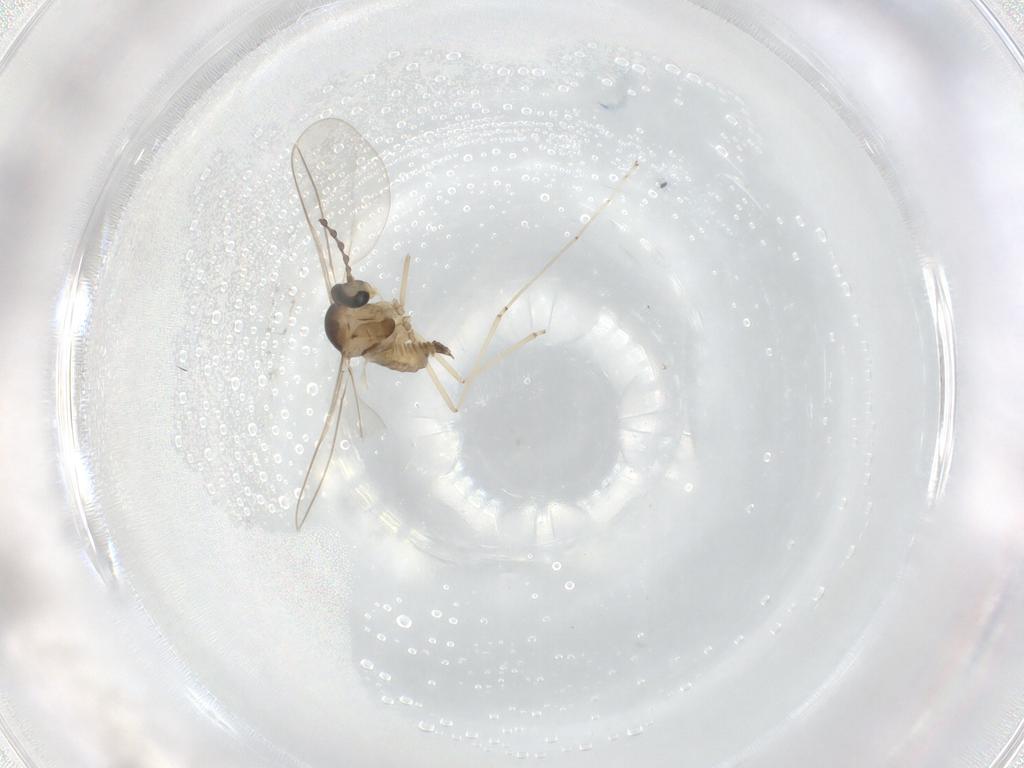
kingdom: Animalia
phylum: Arthropoda
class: Insecta
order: Diptera
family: Cecidomyiidae
